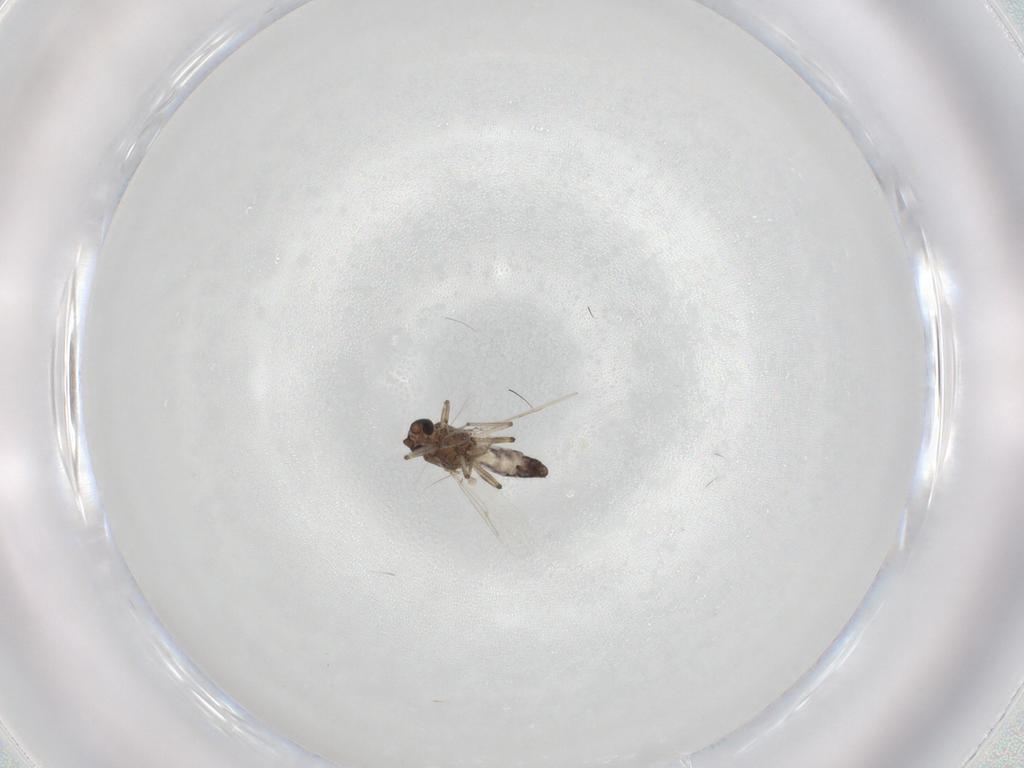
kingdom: Animalia
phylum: Arthropoda
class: Insecta
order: Diptera
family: Ceratopogonidae
